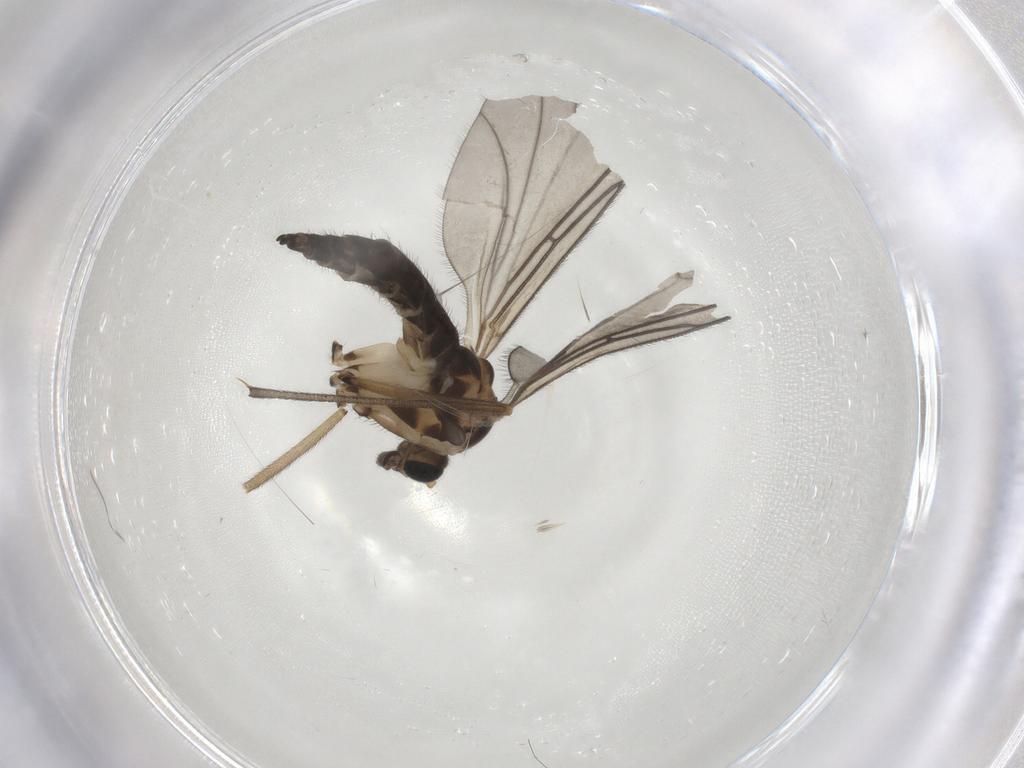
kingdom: Animalia
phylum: Arthropoda
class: Insecta
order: Diptera
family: Sciaridae
